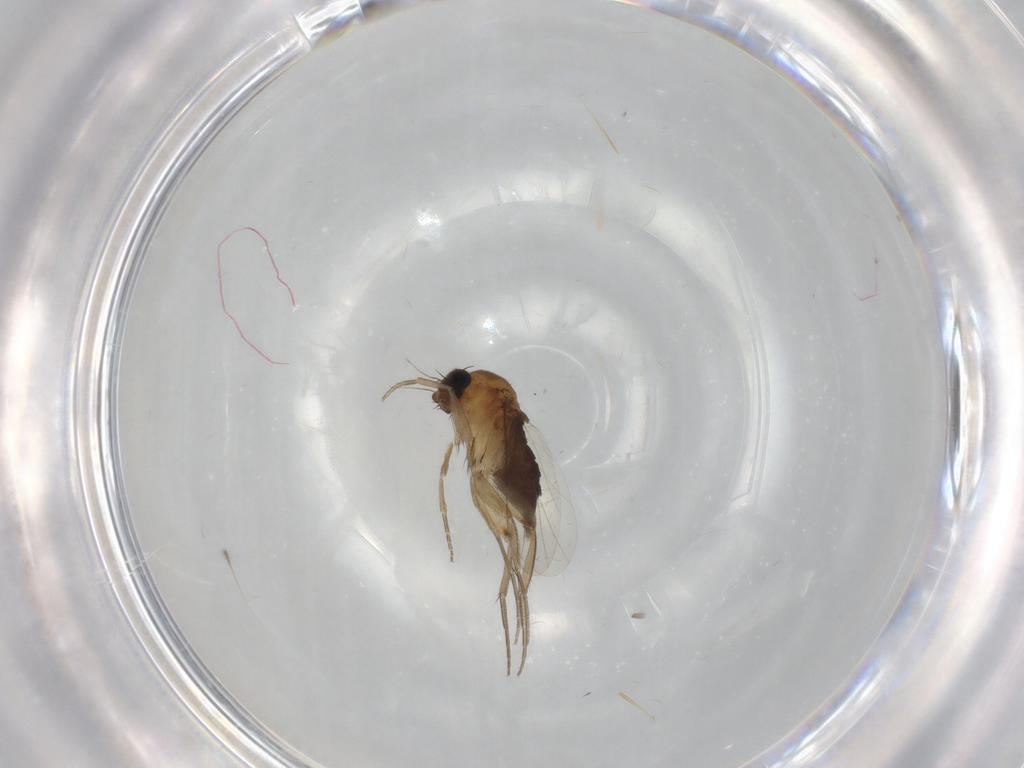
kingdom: Animalia
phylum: Arthropoda
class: Insecta
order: Diptera
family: Phoridae
